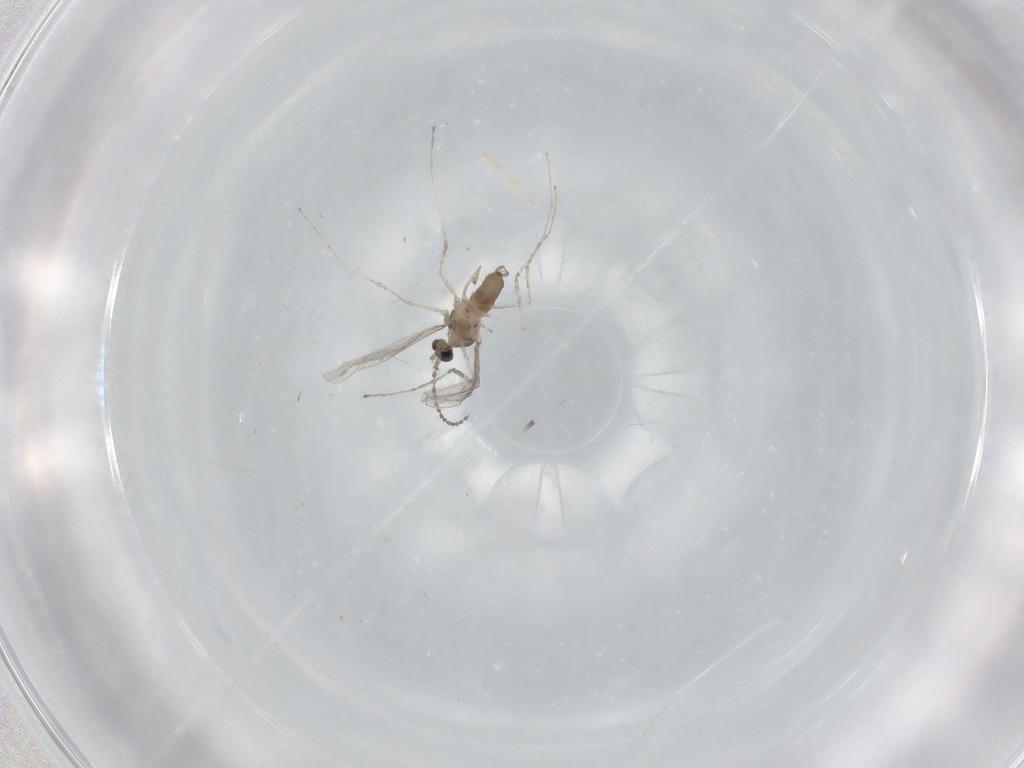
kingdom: Animalia
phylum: Arthropoda
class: Insecta
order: Diptera
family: Cecidomyiidae
